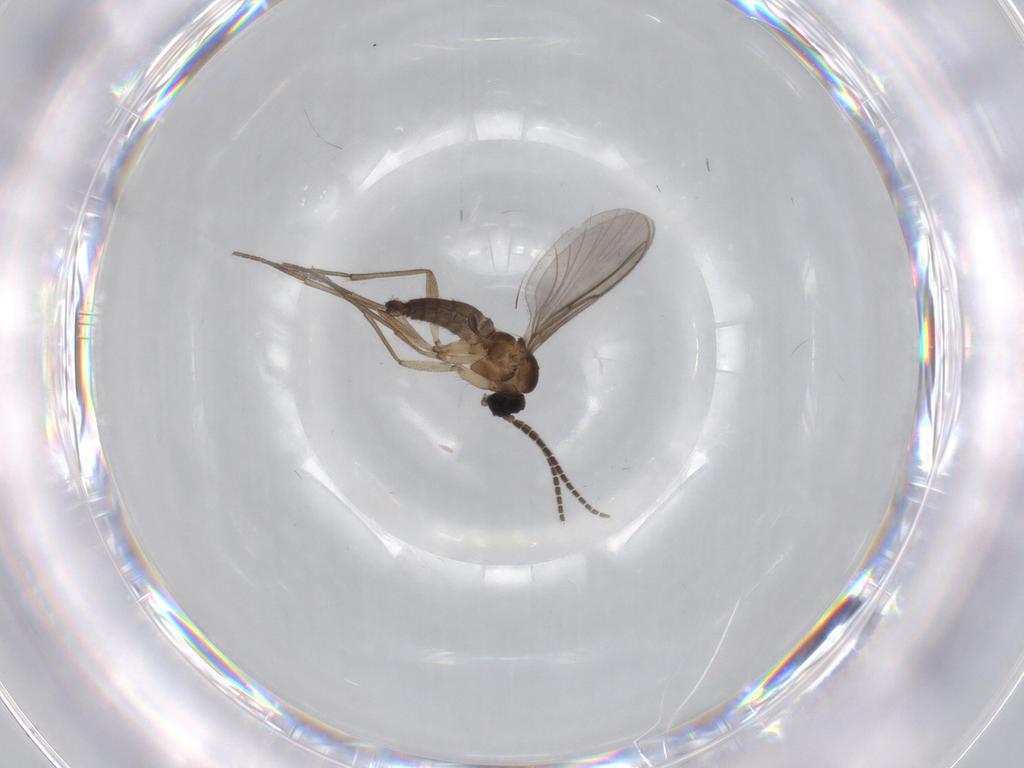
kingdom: Animalia
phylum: Arthropoda
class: Insecta
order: Diptera
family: Sciaridae
